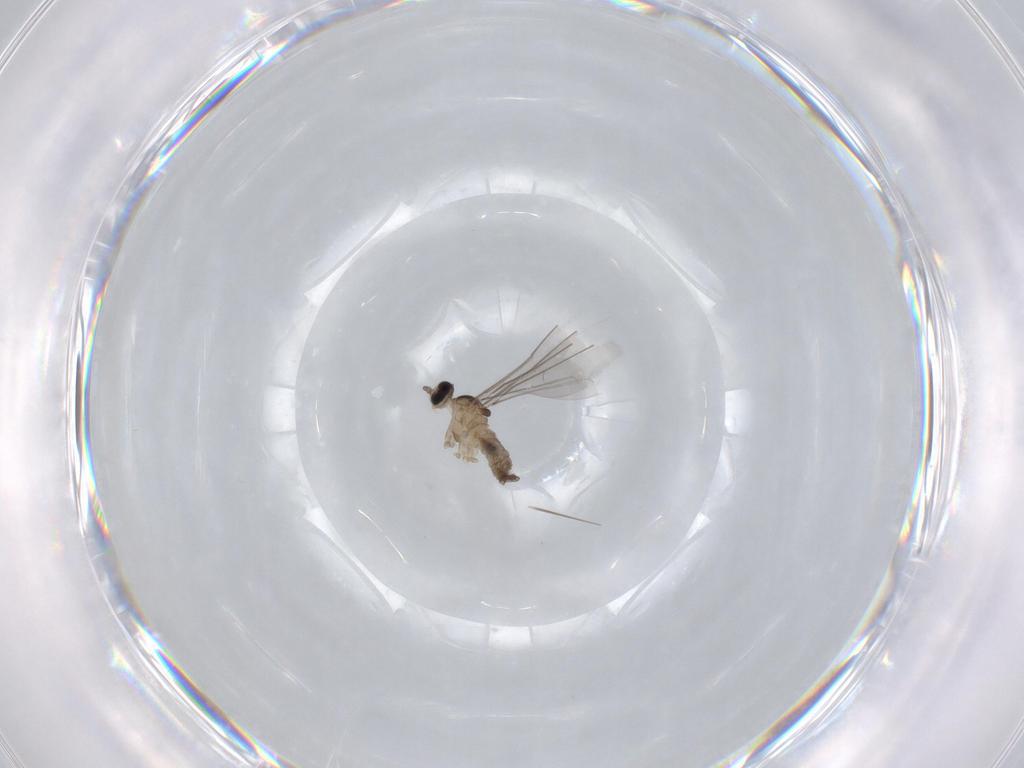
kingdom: Animalia
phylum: Arthropoda
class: Insecta
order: Diptera
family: Cecidomyiidae
